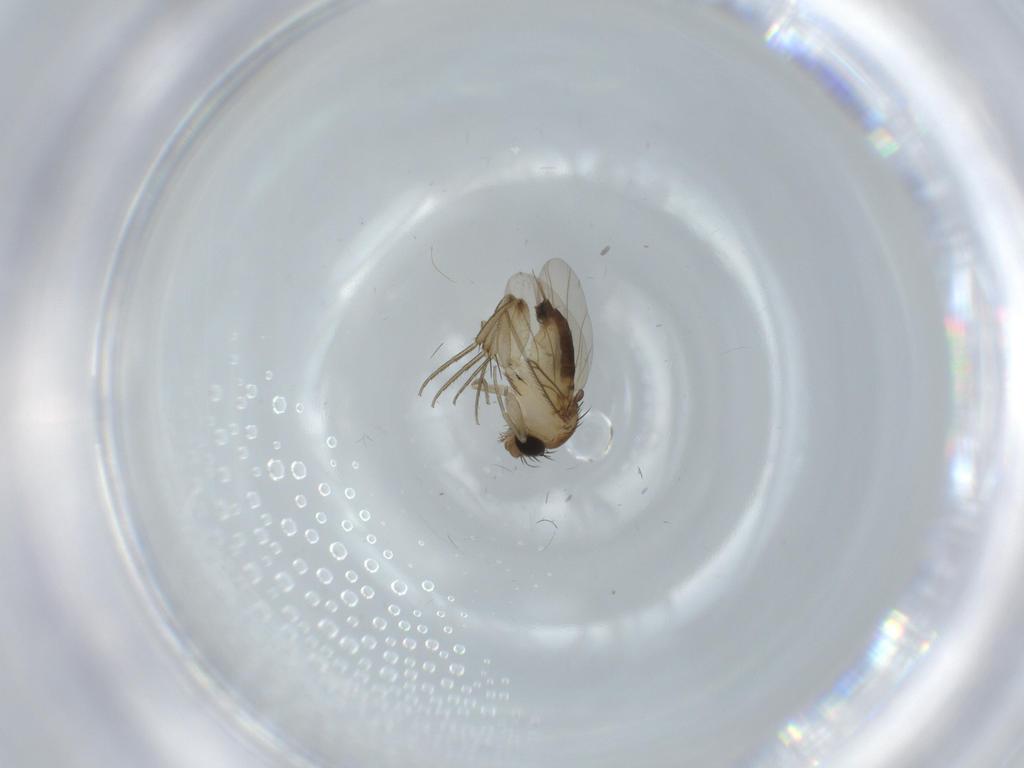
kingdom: Animalia
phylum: Arthropoda
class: Insecta
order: Diptera
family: Phoridae
